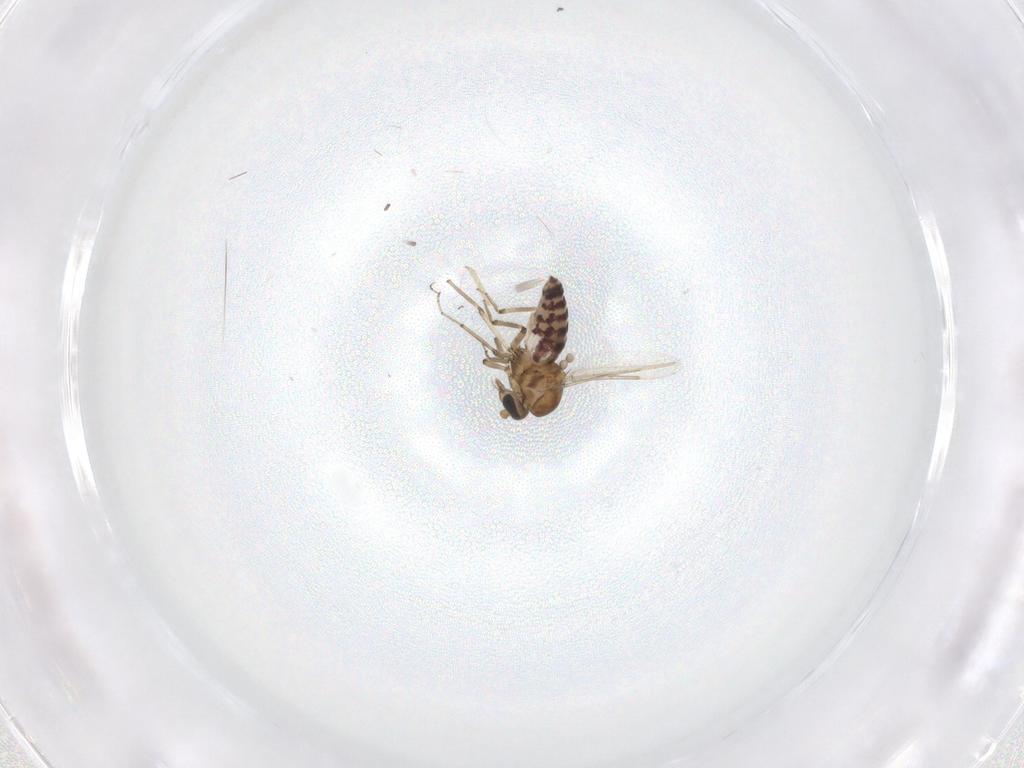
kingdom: Animalia
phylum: Arthropoda
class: Insecta
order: Diptera
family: Ceratopogonidae
